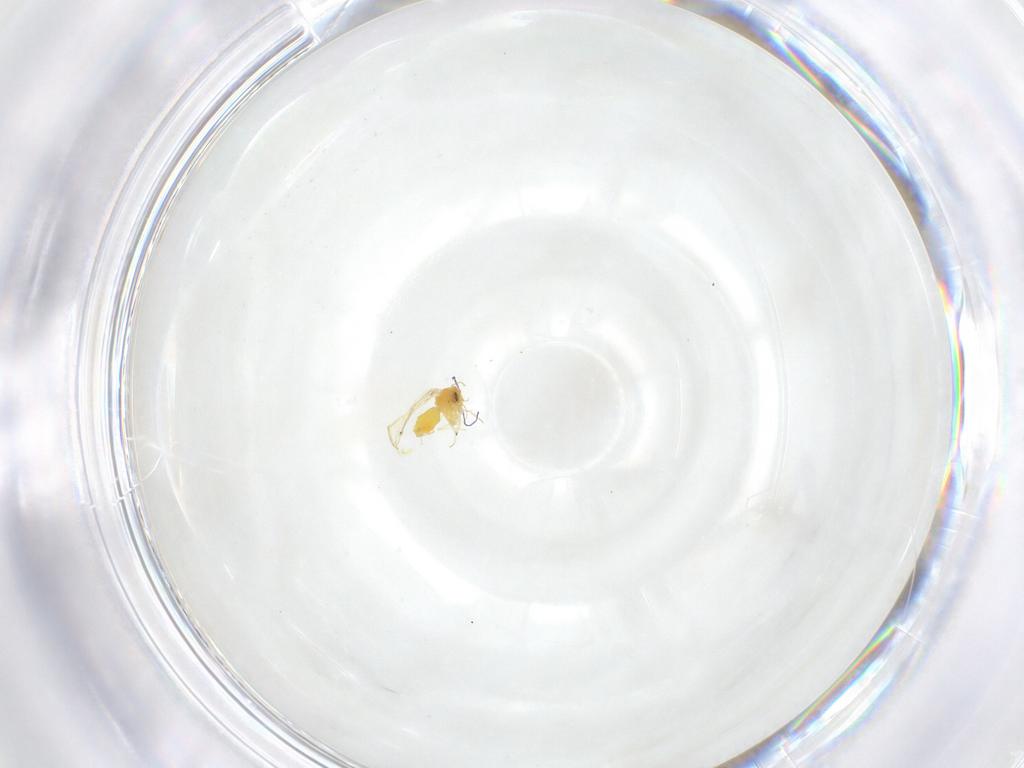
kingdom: Animalia
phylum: Arthropoda
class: Insecta
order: Hemiptera
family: Aleyrodidae
